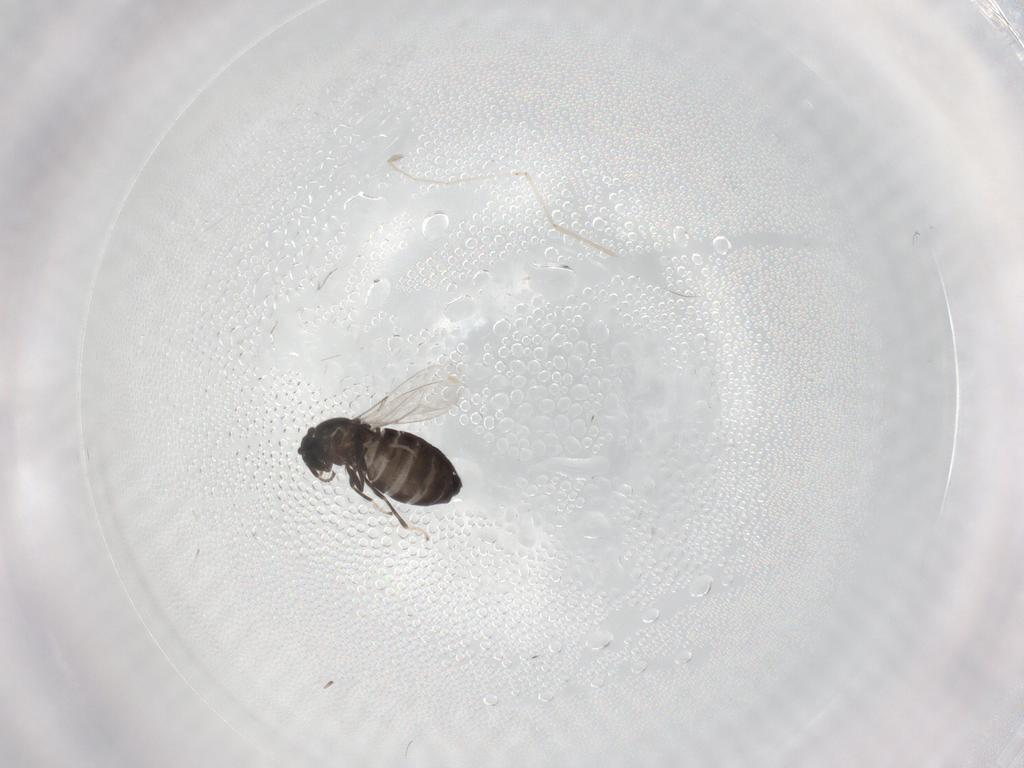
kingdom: Animalia
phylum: Arthropoda
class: Insecta
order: Diptera
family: Scatopsidae
